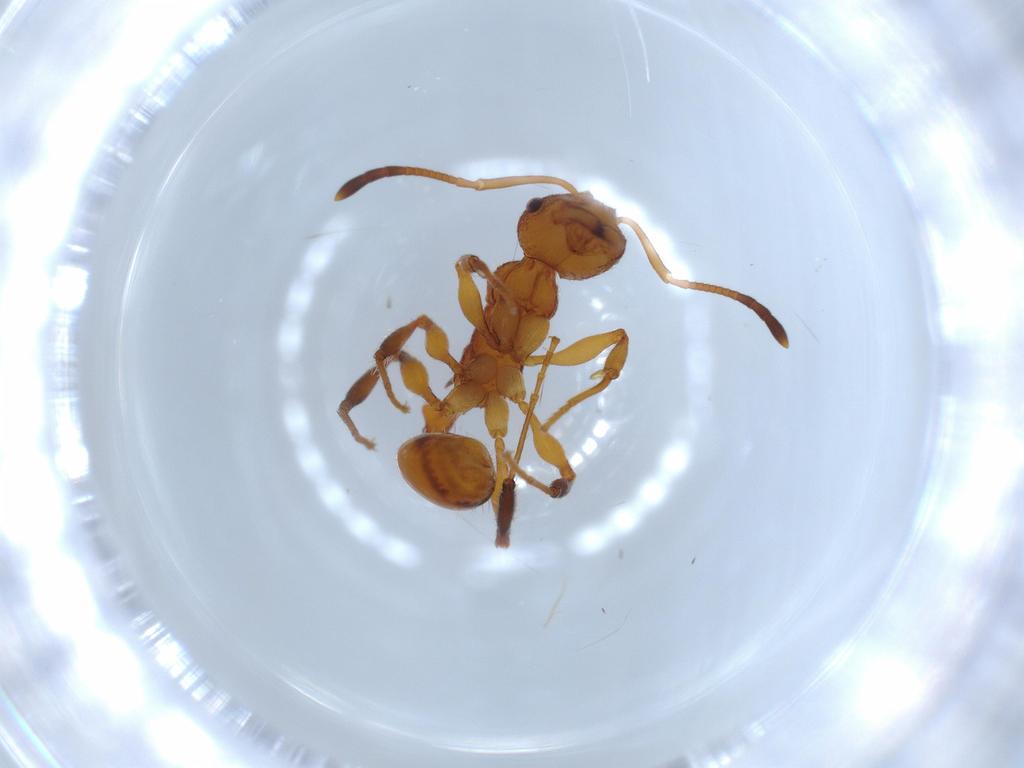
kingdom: Animalia
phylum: Arthropoda
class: Insecta
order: Hymenoptera
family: Formicidae
